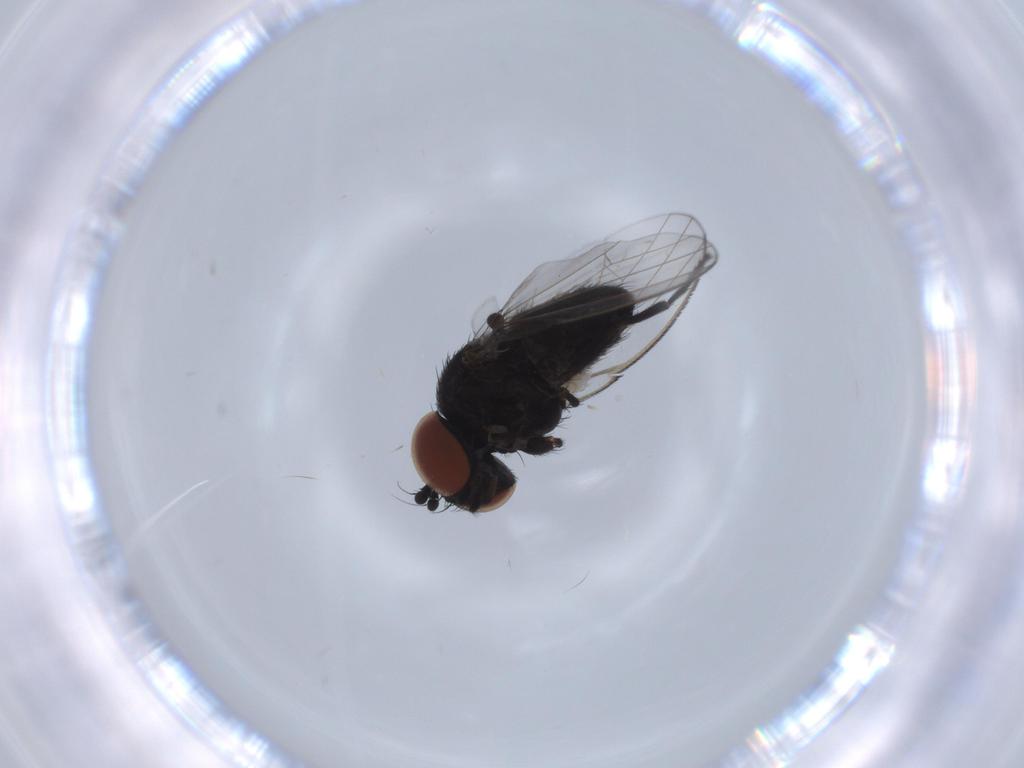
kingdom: Animalia
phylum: Arthropoda
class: Insecta
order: Diptera
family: Milichiidae
